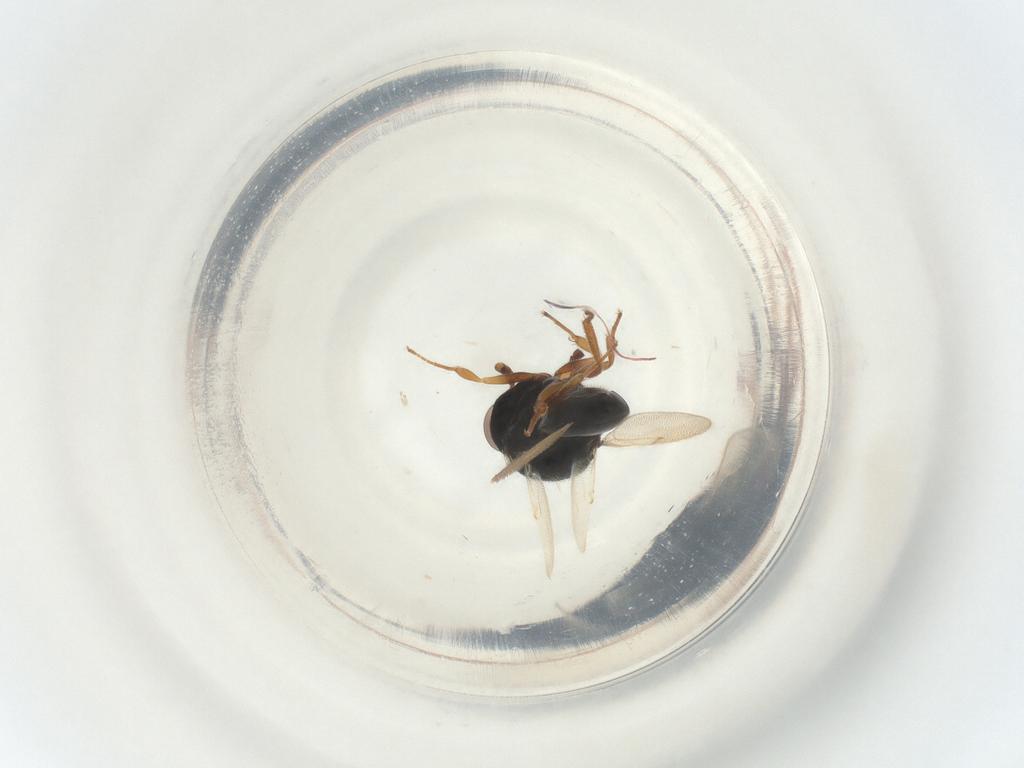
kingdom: Animalia
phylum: Arthropoda
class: Insecta
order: Hymenoptera
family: Scelionidae
